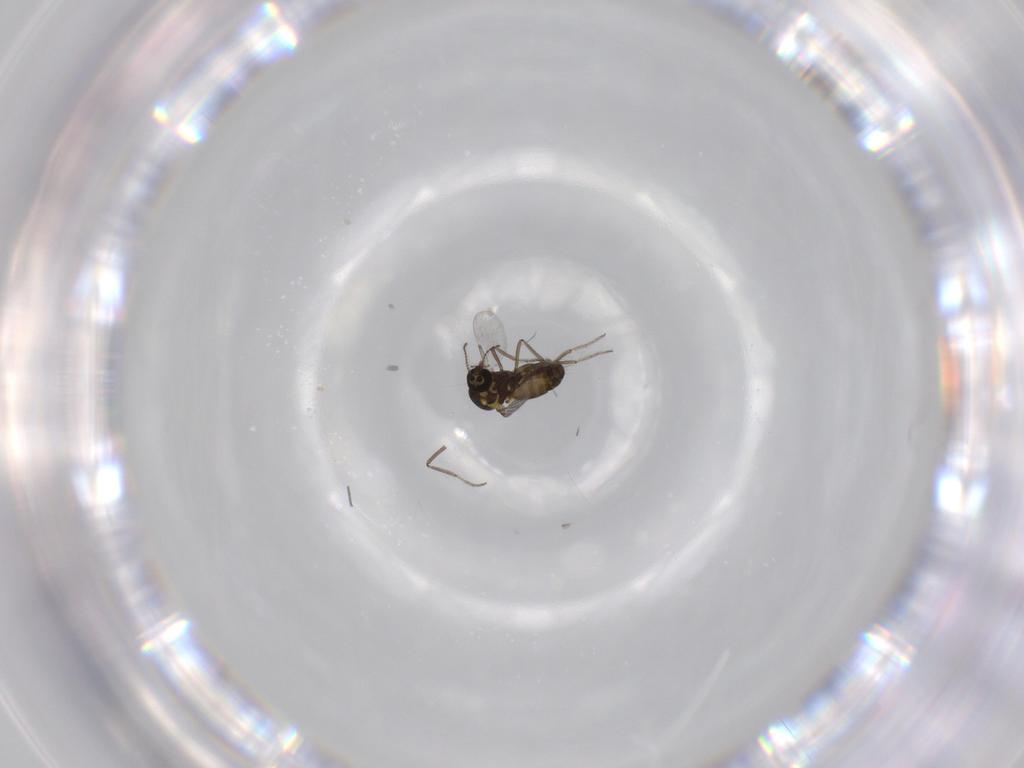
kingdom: Animalia
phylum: Arthropoda
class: Insecta
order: Diptera
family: Ceratopogonidae
